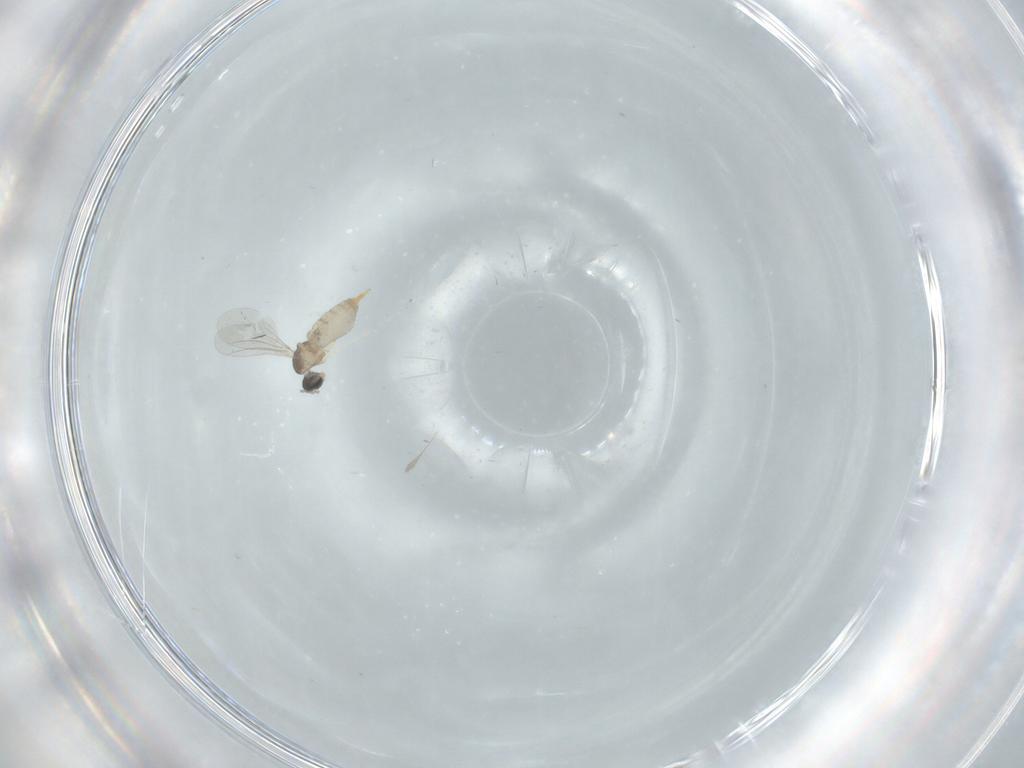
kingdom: Animalia
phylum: Arthropoda
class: Insecta
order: Diptera
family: Cecidomyiidae
